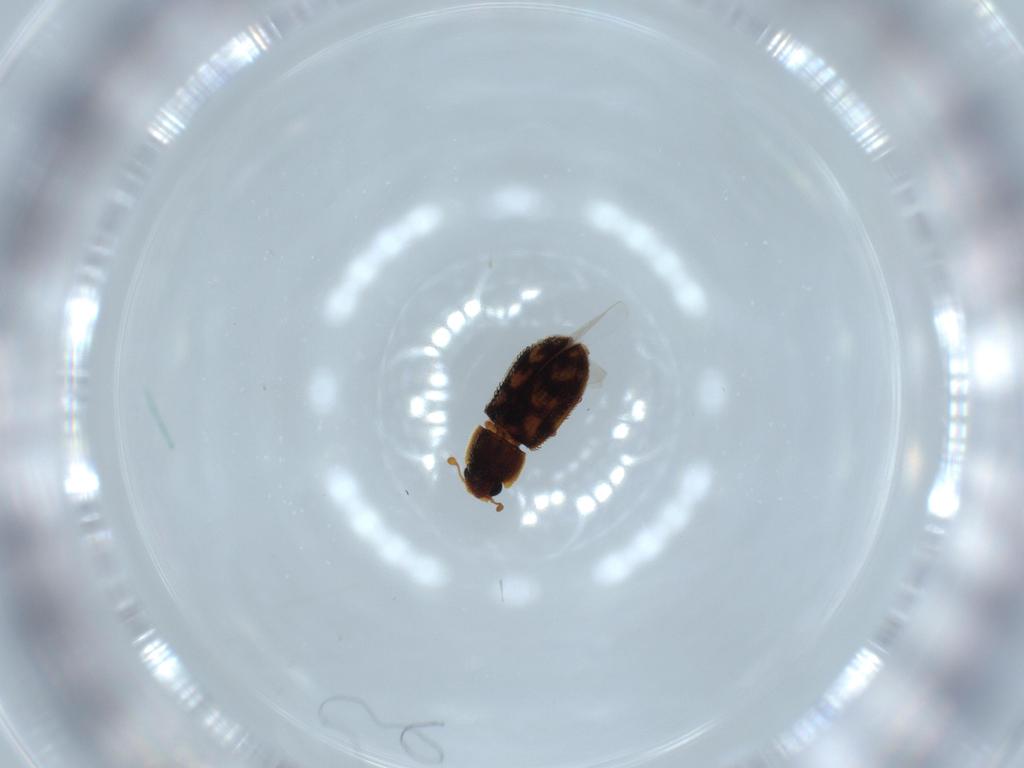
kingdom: Animalia
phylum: Arthropoda
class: Insecta
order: Coleoptera
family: Zopheridae
